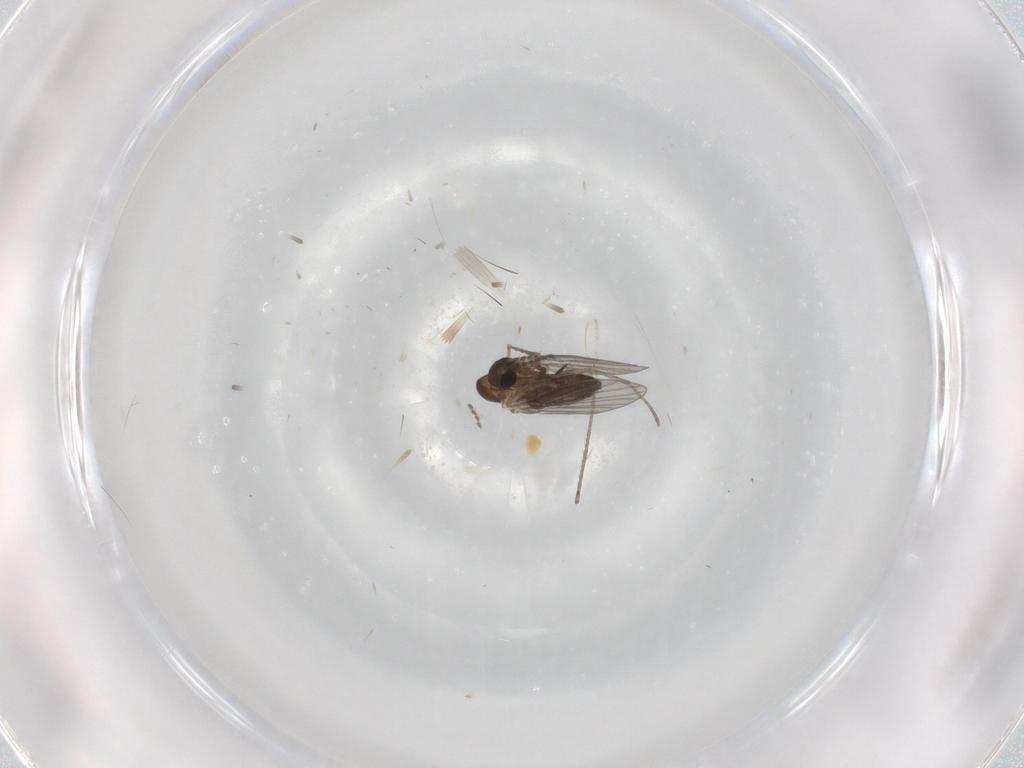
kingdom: Animalia
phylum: Arthropoda
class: Insecta
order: Diptera
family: Cecidomyiidae
